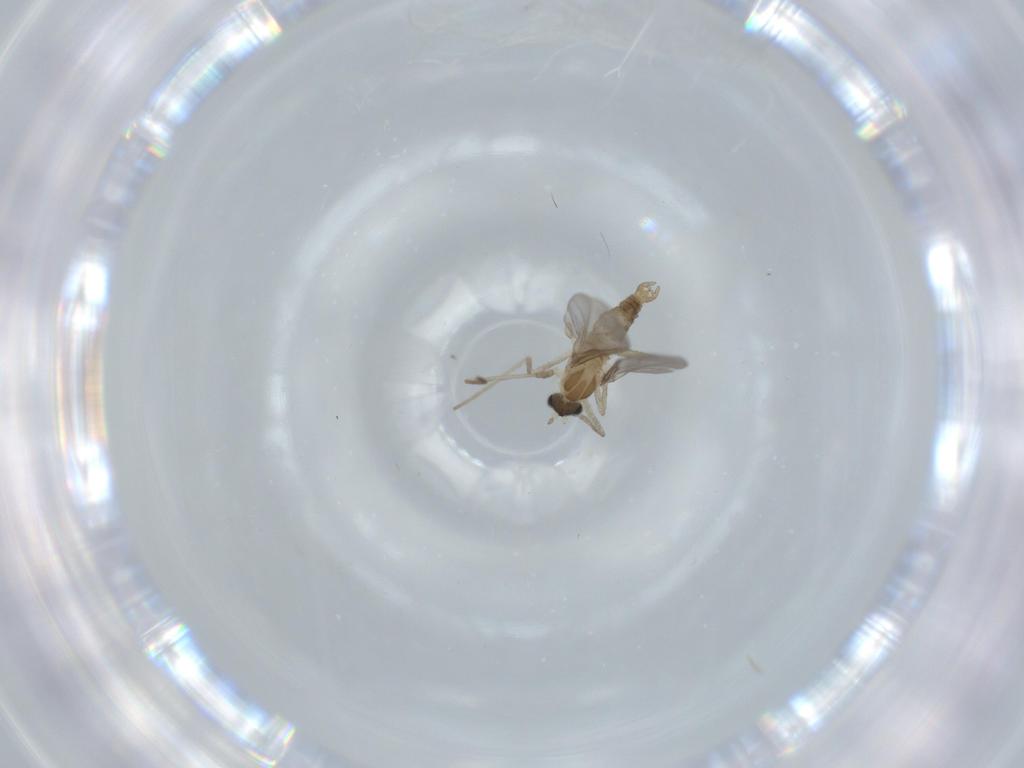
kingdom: Animalia
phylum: Arthropoda
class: Insecta
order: Diptera
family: Cecidomyiidae
